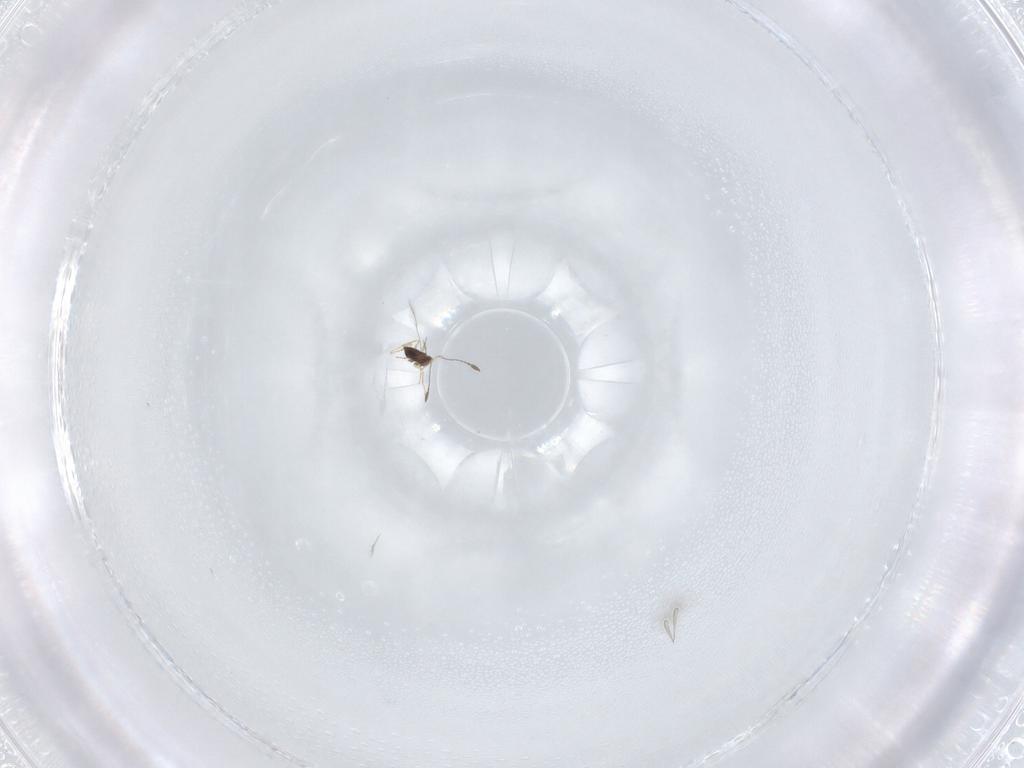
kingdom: Animalia
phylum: Arthropoda
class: Insecta
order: Hymenoptera
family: Mymaridae
